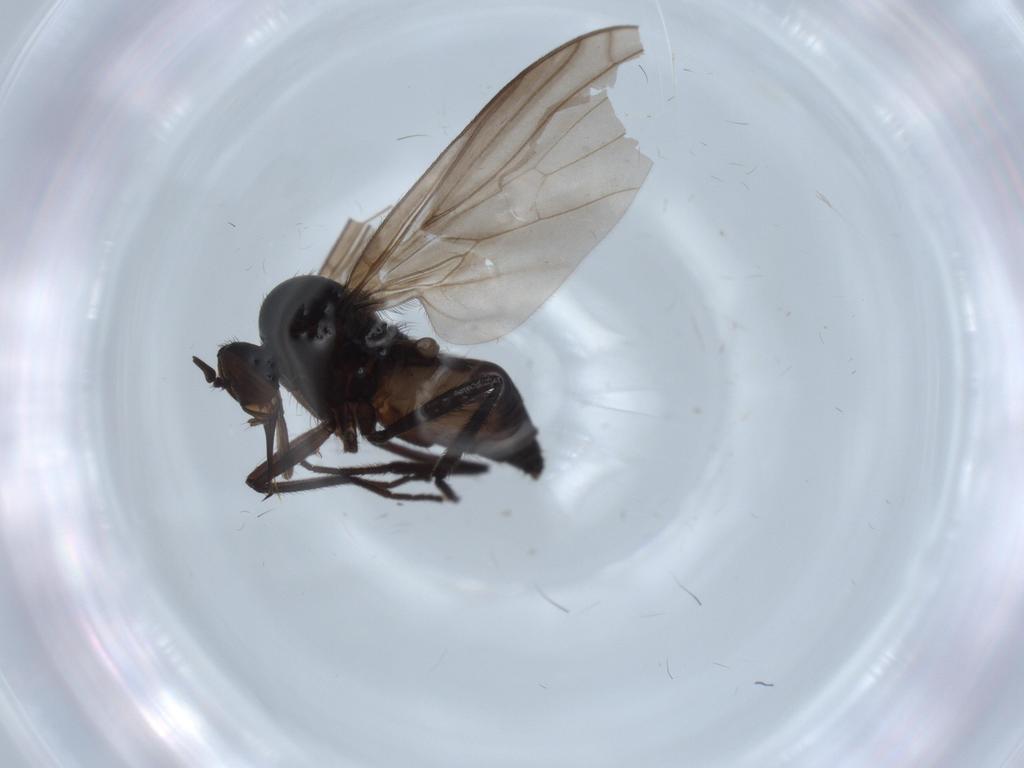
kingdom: Animalia
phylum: Arthropoda
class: Insecta
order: Diptera
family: Empididae
